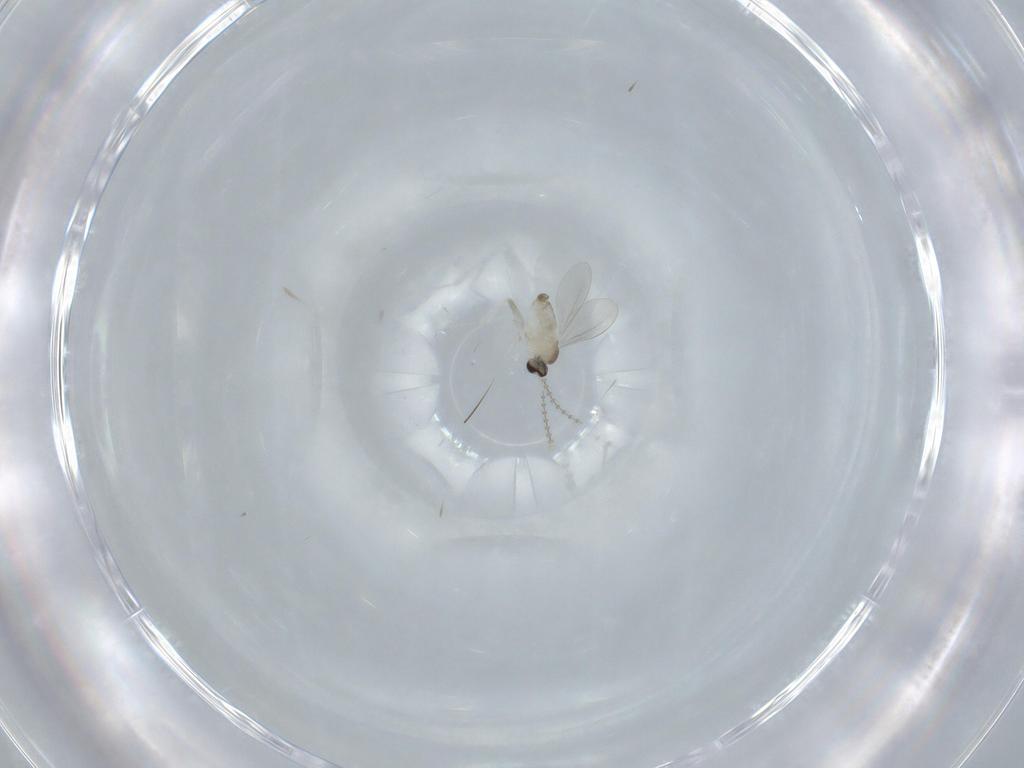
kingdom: Animalia
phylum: Arthropoda
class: Insecta
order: Diptera
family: Cecidomyiidae
